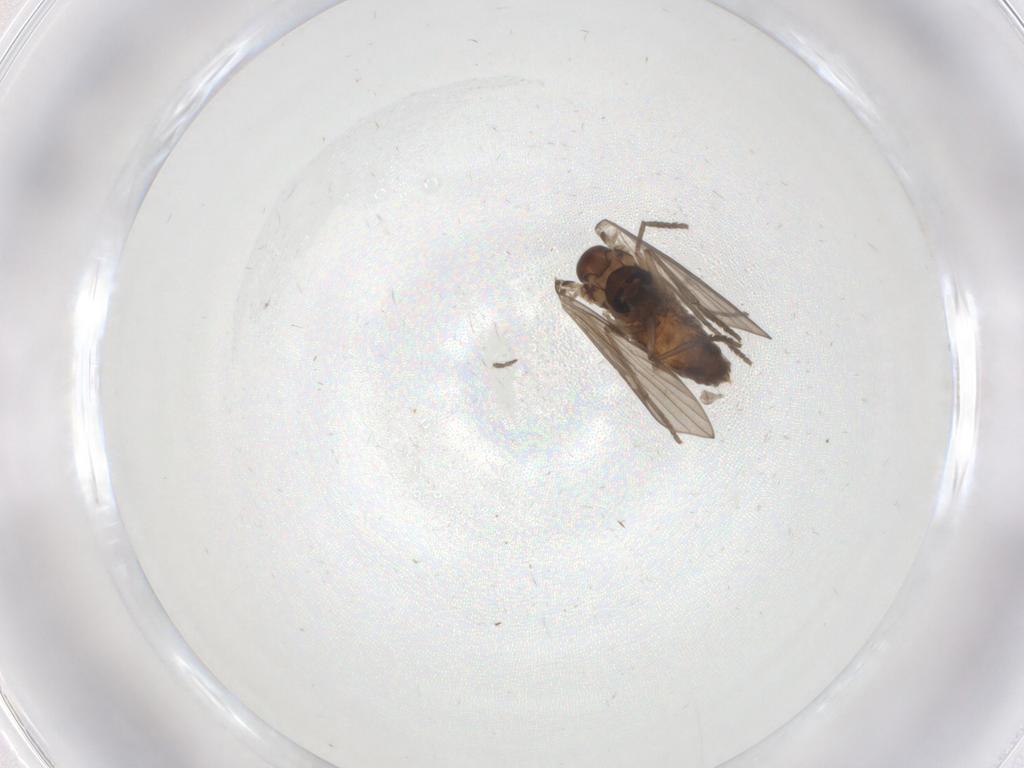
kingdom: Animalia
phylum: Arthropoda
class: Insecta
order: Diptera
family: Psychodidae
